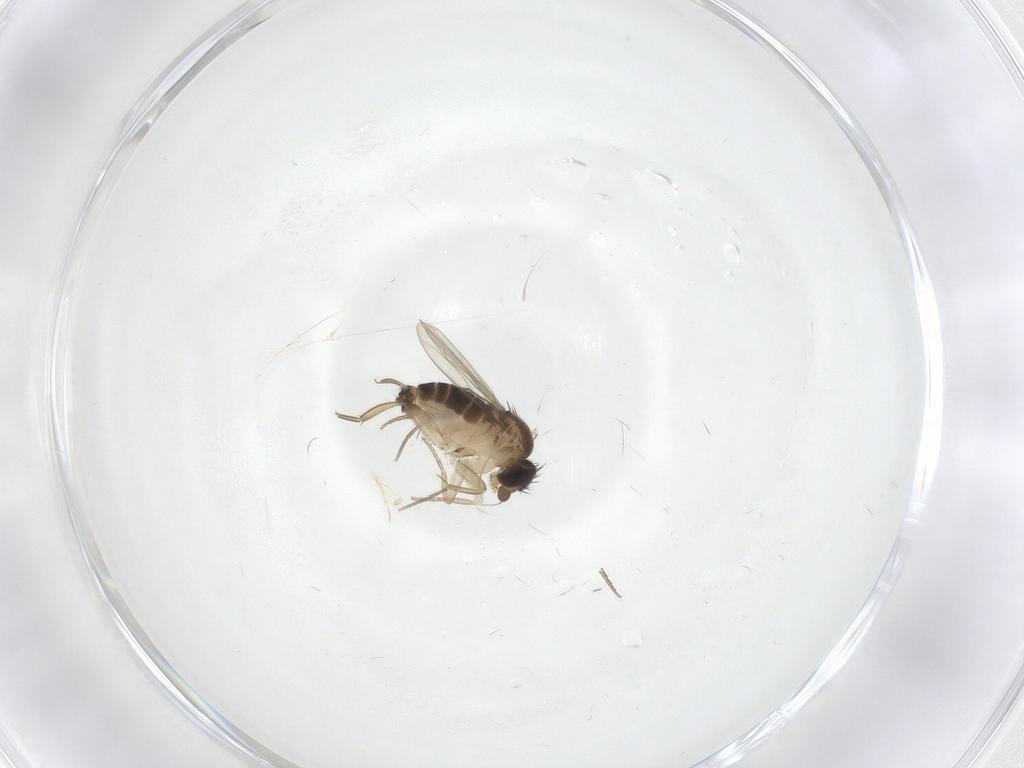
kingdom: Animalia
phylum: Arthropoda
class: Insecta
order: Diptera
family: Phoridae
